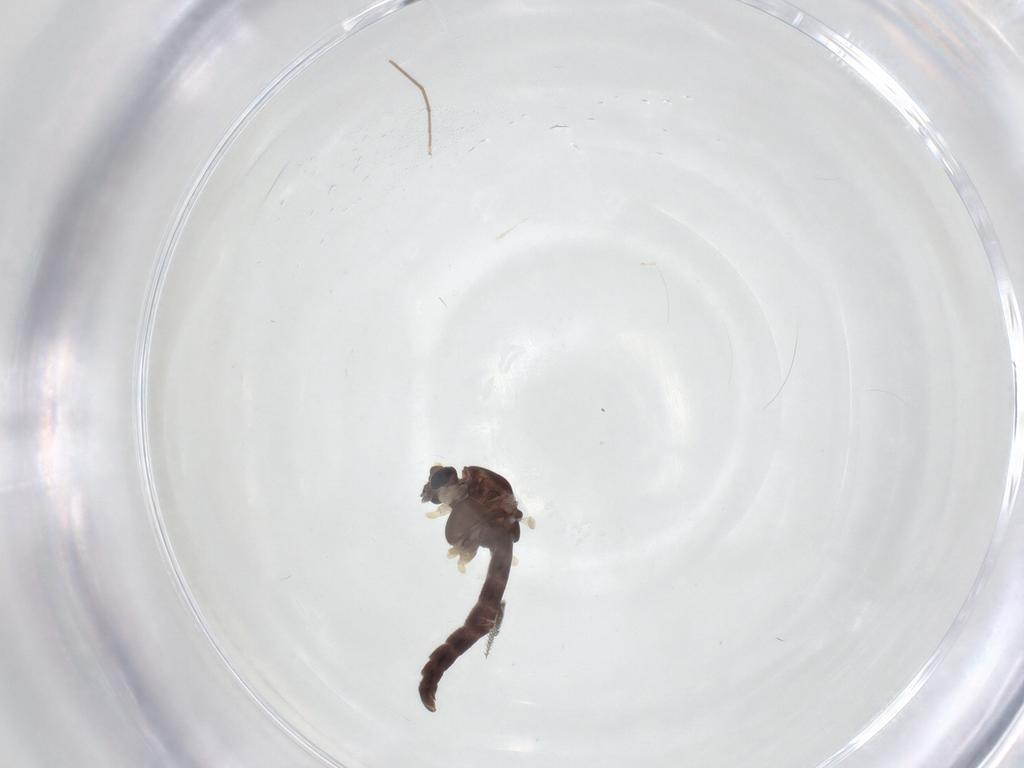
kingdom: Animalia
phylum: Arthropoda
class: Insecta
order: Diptera
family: Chironomidae
